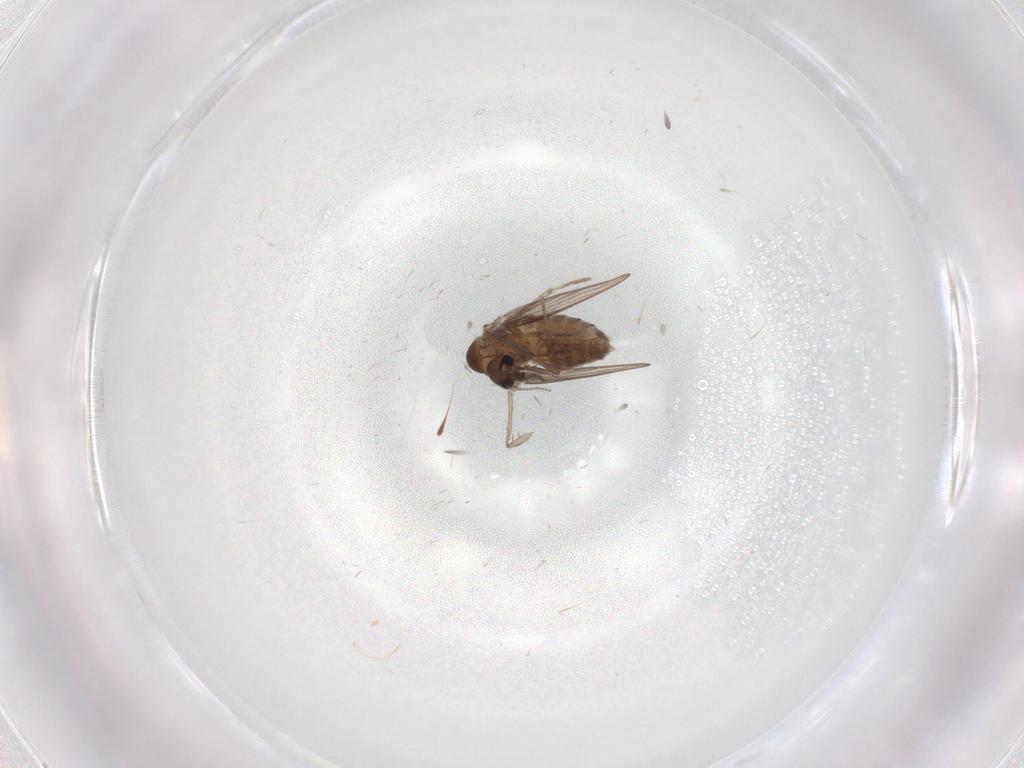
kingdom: Animalia
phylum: Arthropoda
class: Insecta
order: Diptera
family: Psychodidae
